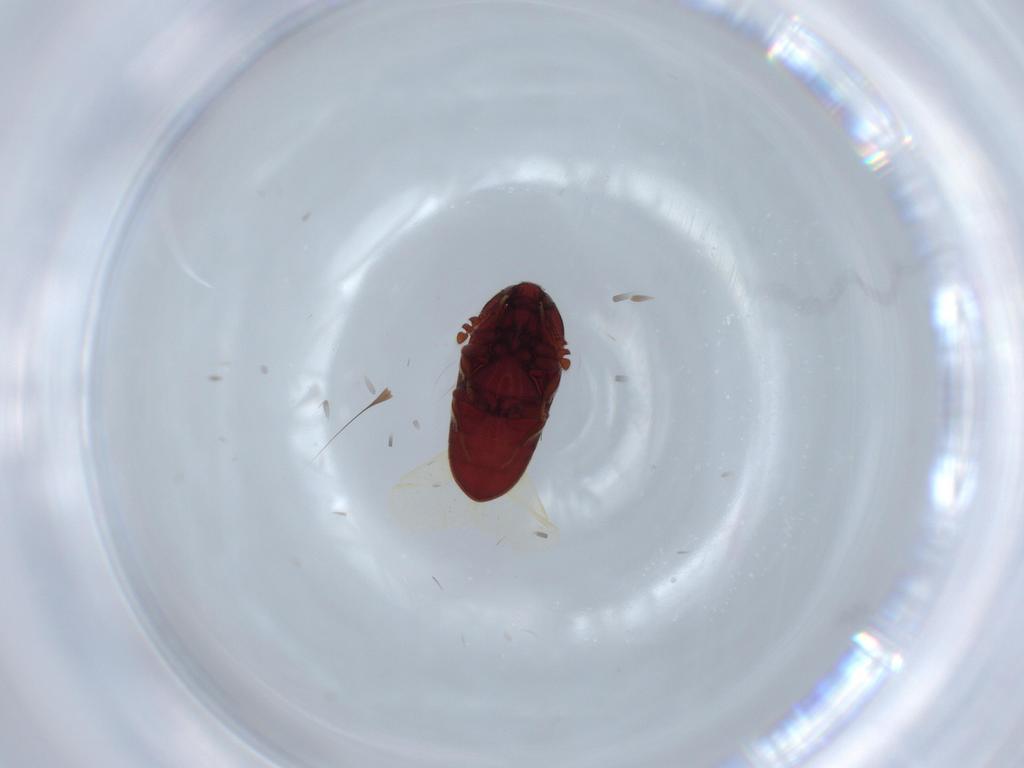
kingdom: Animalia
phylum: Arthropoda
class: Insecta
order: Coleoptera
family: Throscidae
